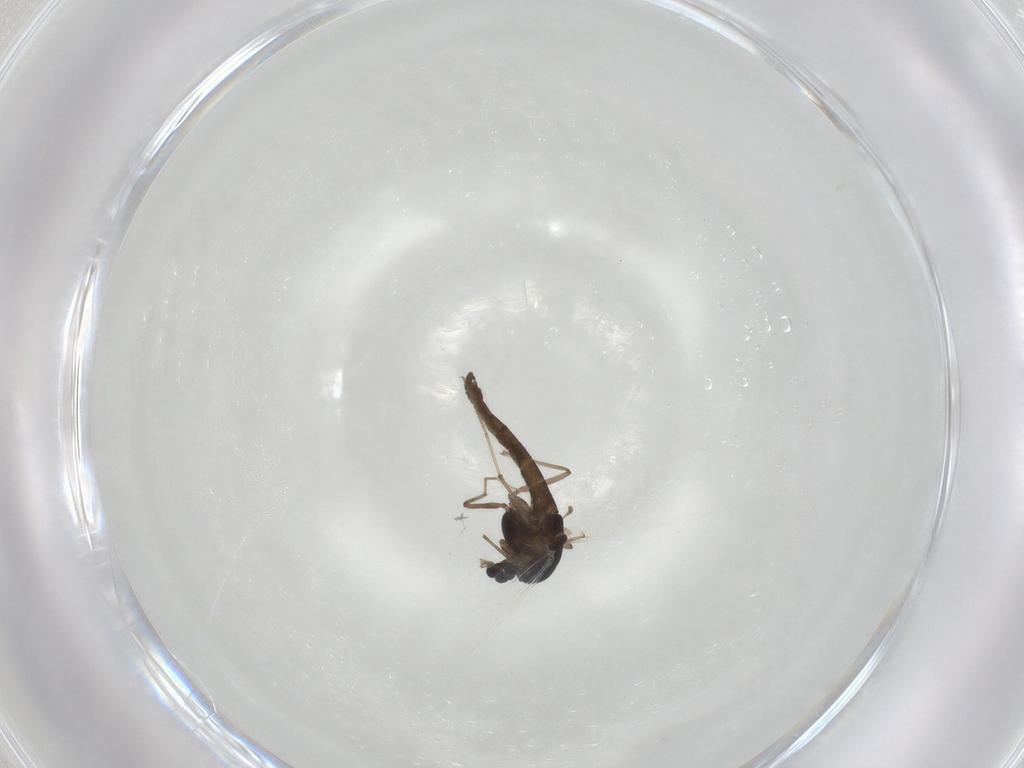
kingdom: Animalia
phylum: Arthropoda
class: Insecta
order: Diptera
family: Chironomidae
